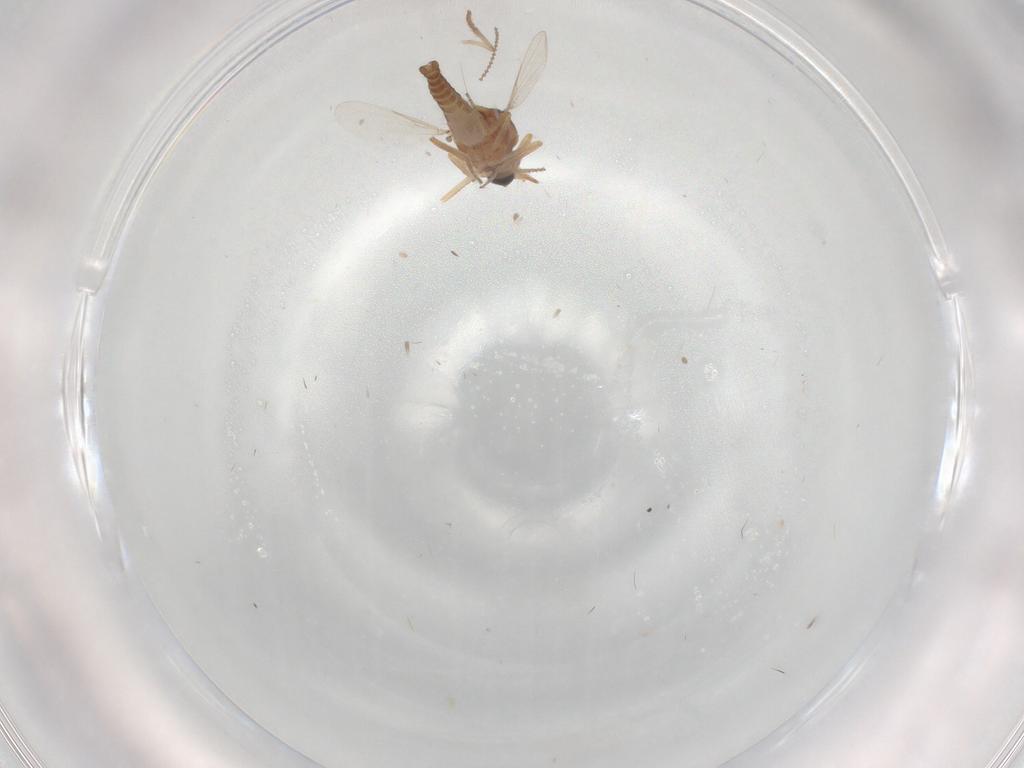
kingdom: Animalia
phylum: Arthropoda
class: Insecta
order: Diptera
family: Ceratopogonidae
